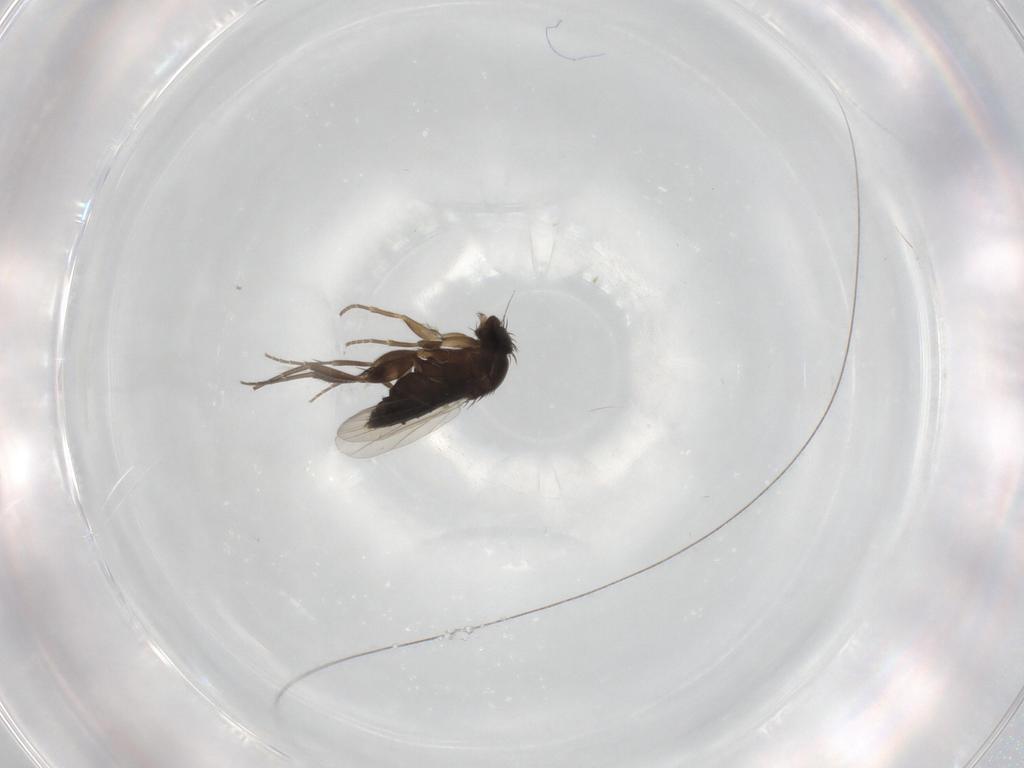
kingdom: Animalia
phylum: Arthropoda
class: Insecta
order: Diptera
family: Phoridae
